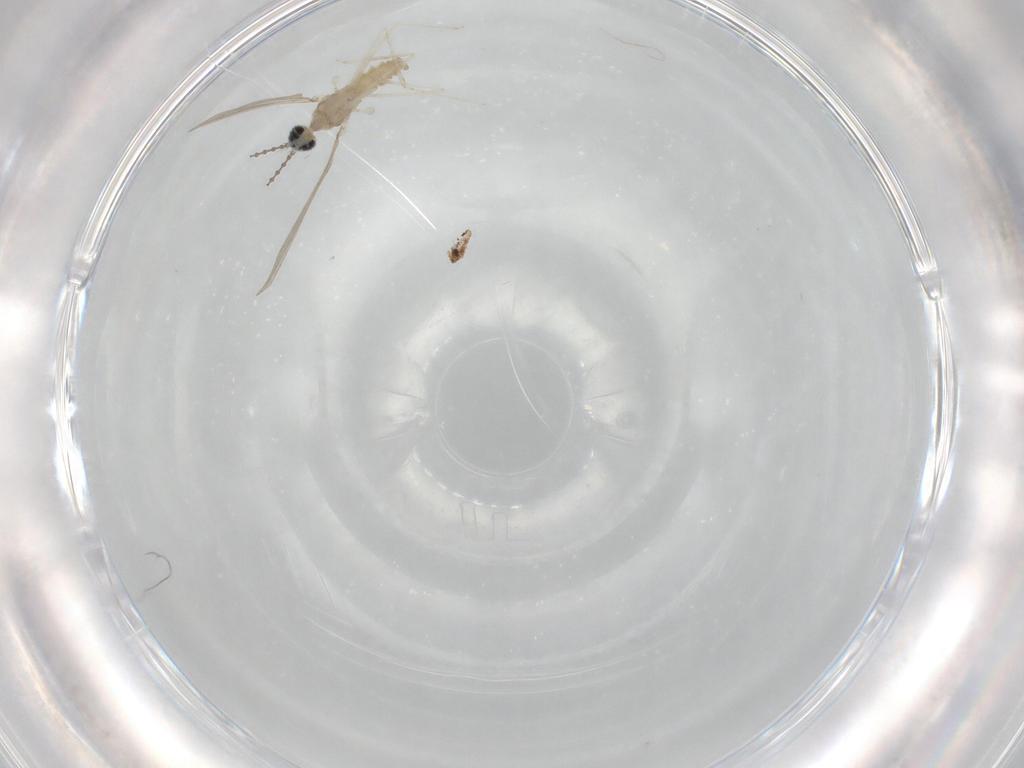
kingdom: Animalia
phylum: Arthropoda
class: Insecta
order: Diptera
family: Cecidomyiidae
